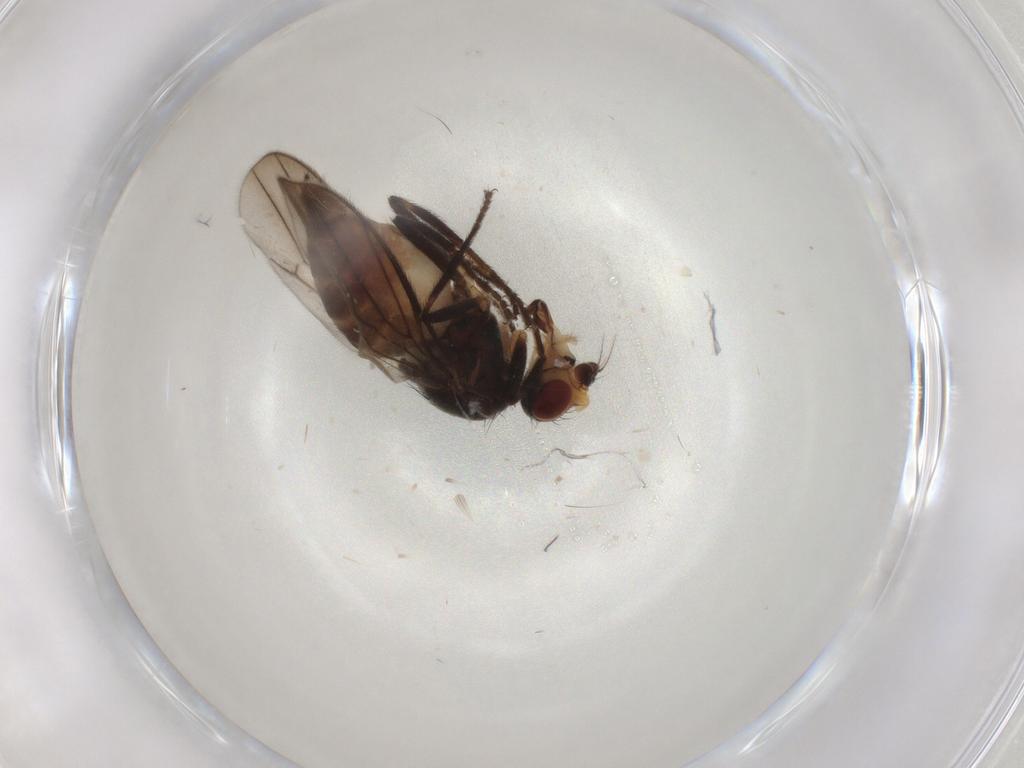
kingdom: Animalia
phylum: Arthropoda
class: Insecta
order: Diptera
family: Chloropidae
